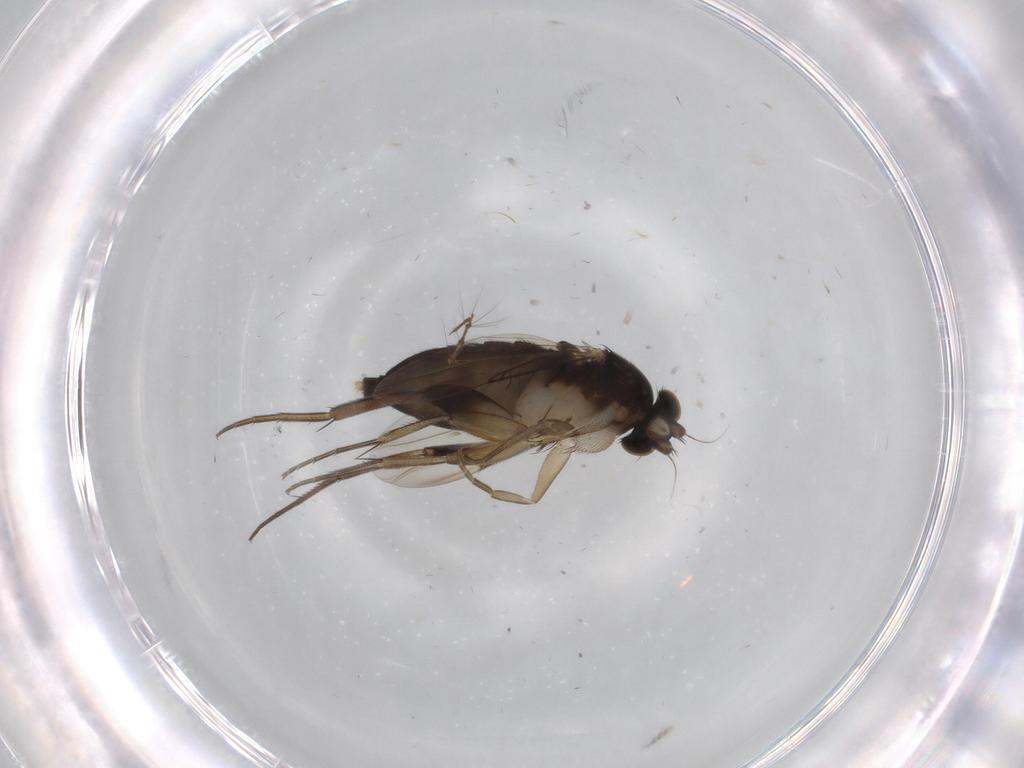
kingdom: Animalia
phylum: Arthropoda
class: Insecta
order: Diptera
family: Phoridae
